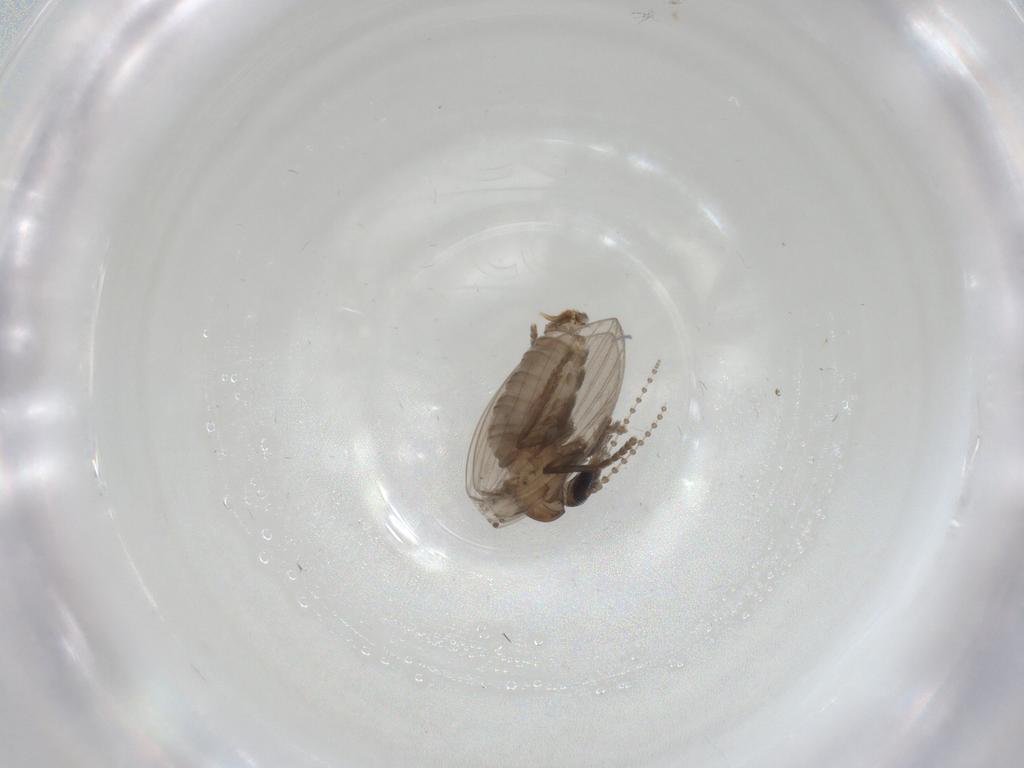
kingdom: Animalia
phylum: Arthropoda
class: Insecta
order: Diptera
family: Psychodidae
